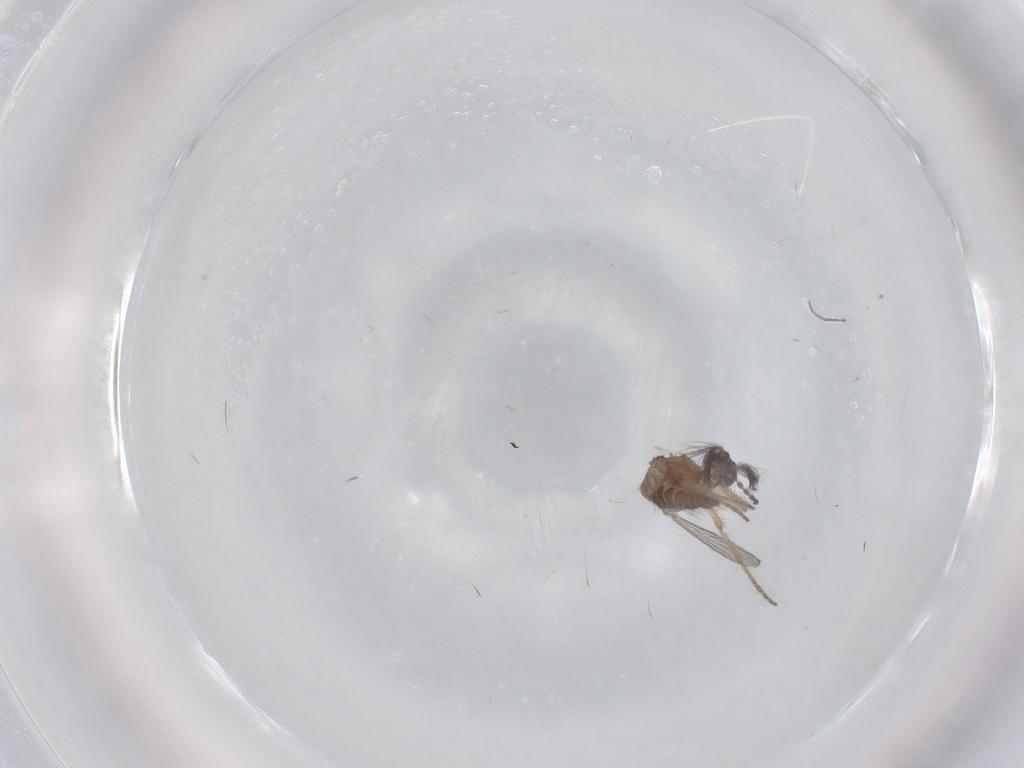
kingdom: Animalia
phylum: Arthropoda
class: Insecta
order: Diptera
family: Ceratopogonidae
